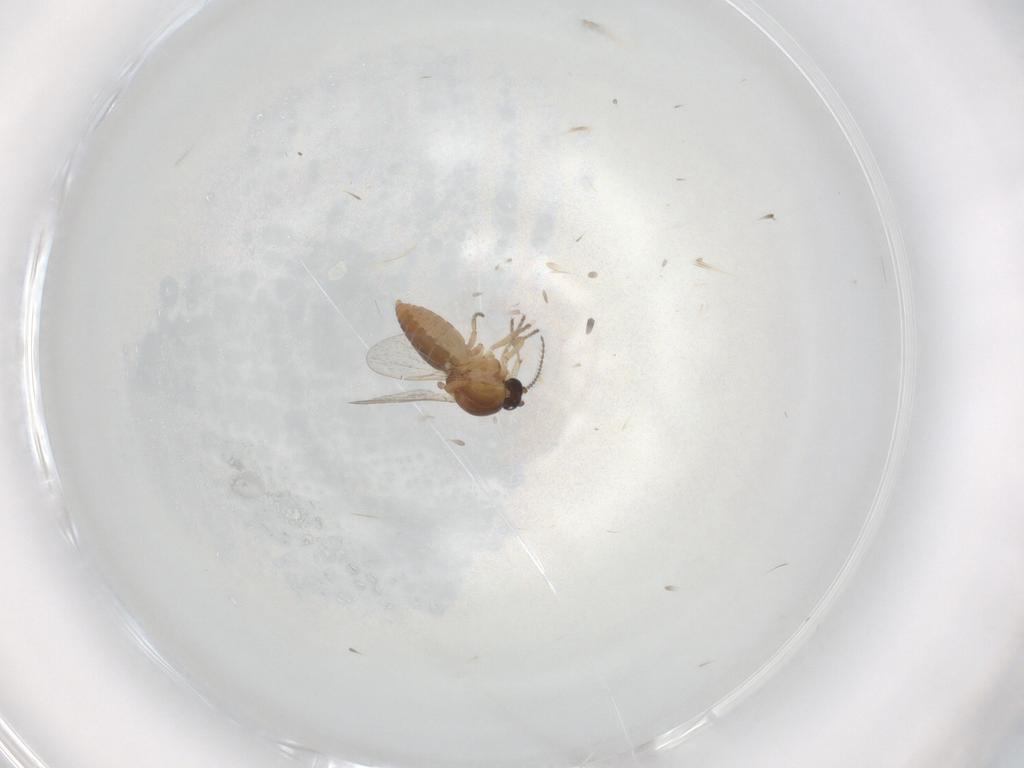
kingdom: Animalia
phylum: Arthropoda
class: Insecta
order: Diptera
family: Ceratopogonidae
